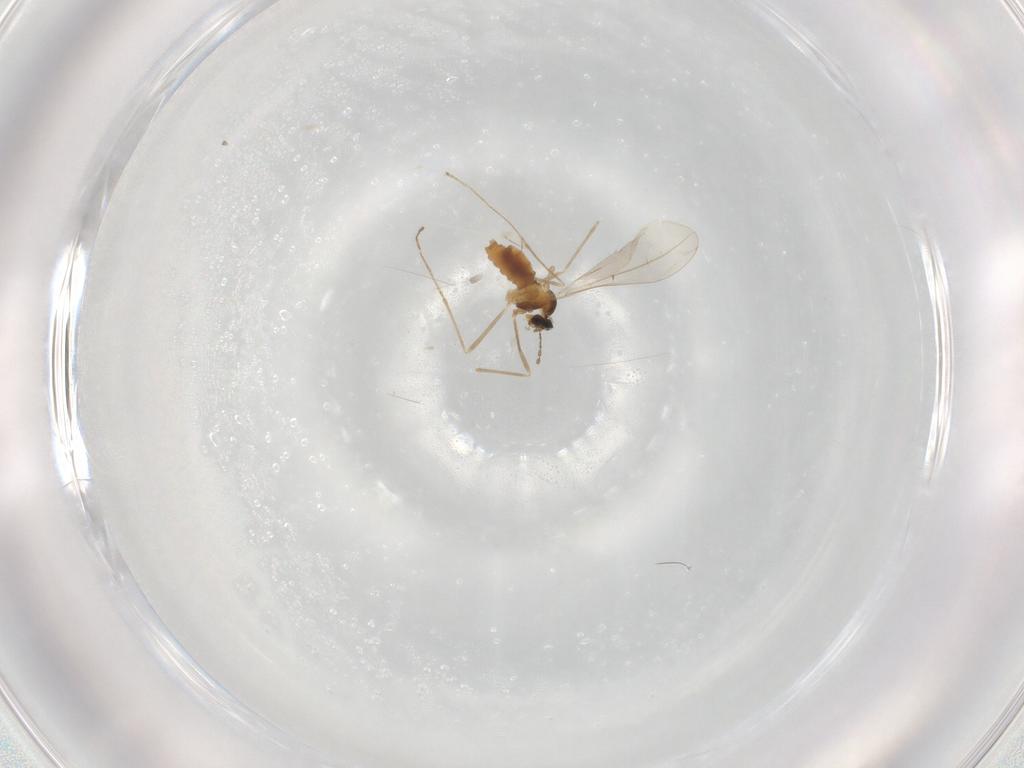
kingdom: Animalia
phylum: Arthropoda
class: Insecta
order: Diptera
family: Cecidomyiidae
